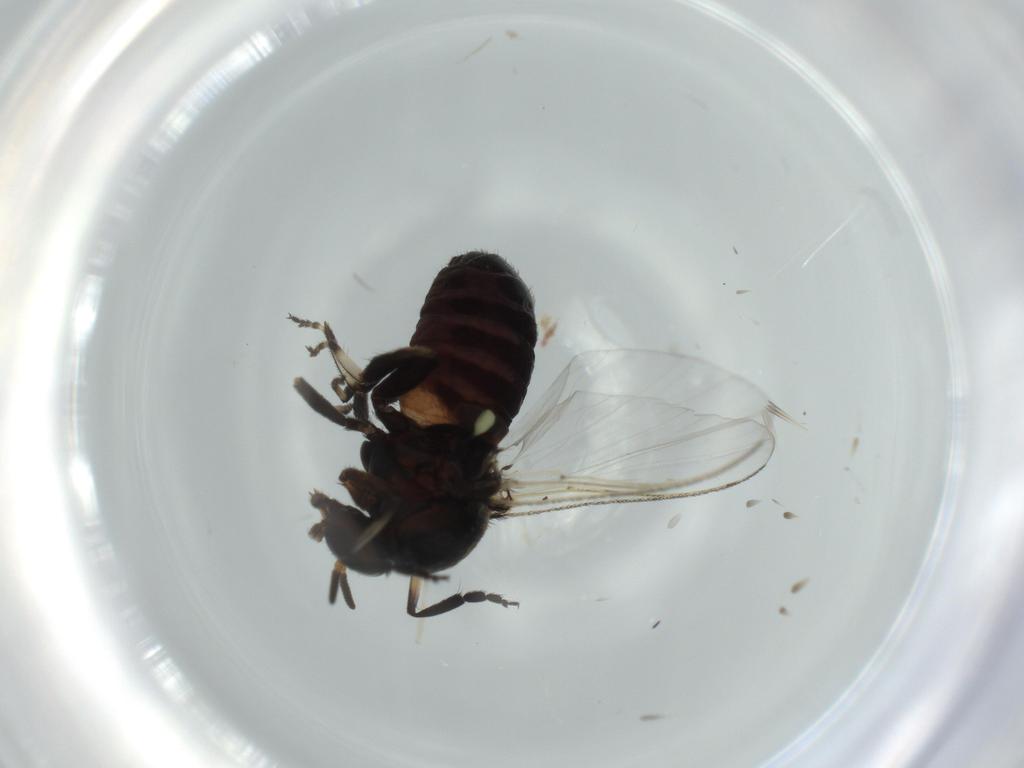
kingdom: Animalia
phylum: Arthropoda
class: Insecta
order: Diptera
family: Simuliidae
